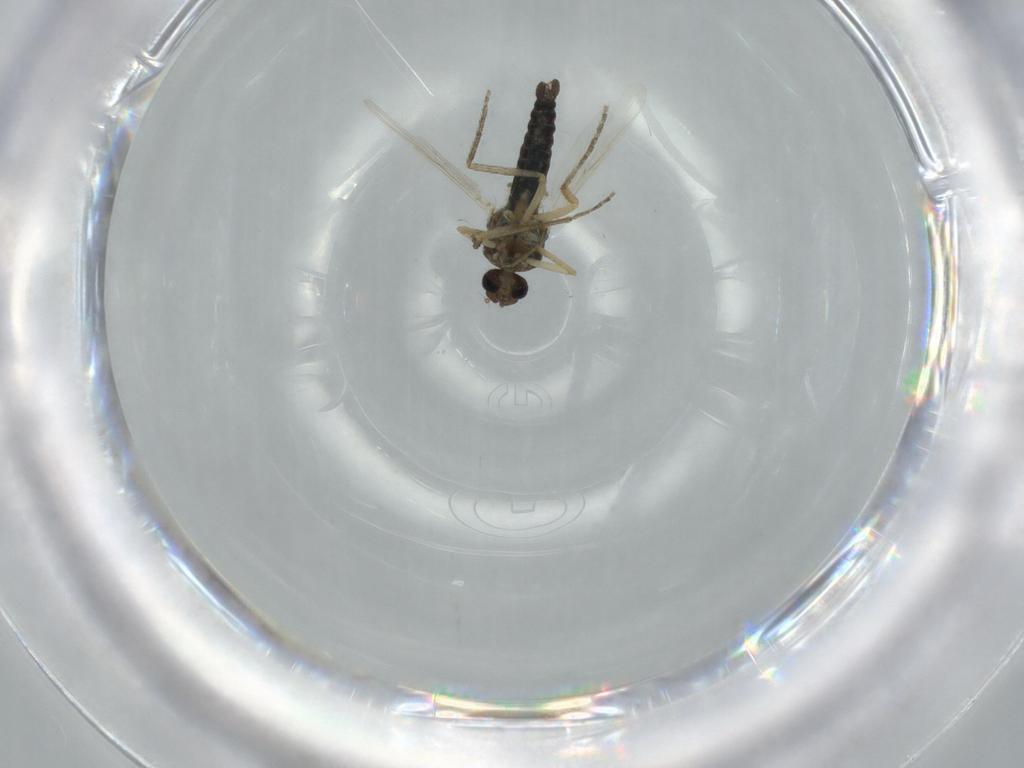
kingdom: Animalia
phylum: Arthropoda
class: Insecta
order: Diptera
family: Ceratopogonidae
